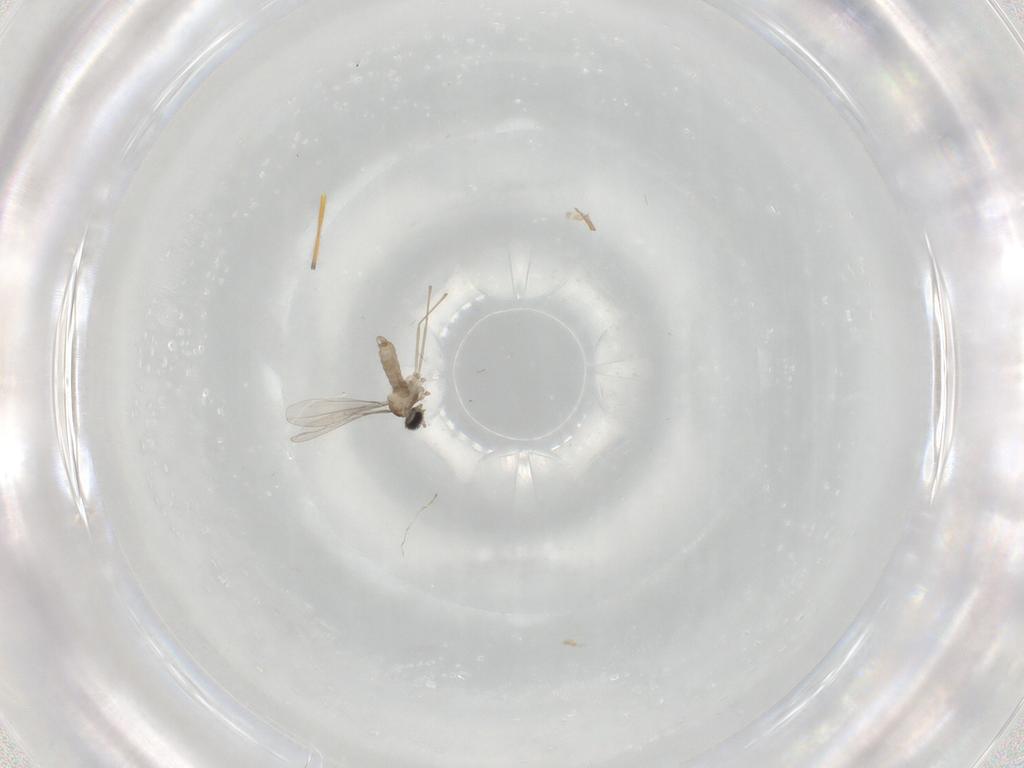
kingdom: Animalia
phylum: Arthropoda
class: Insecta
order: Diptera
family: Cecidomyiidae
